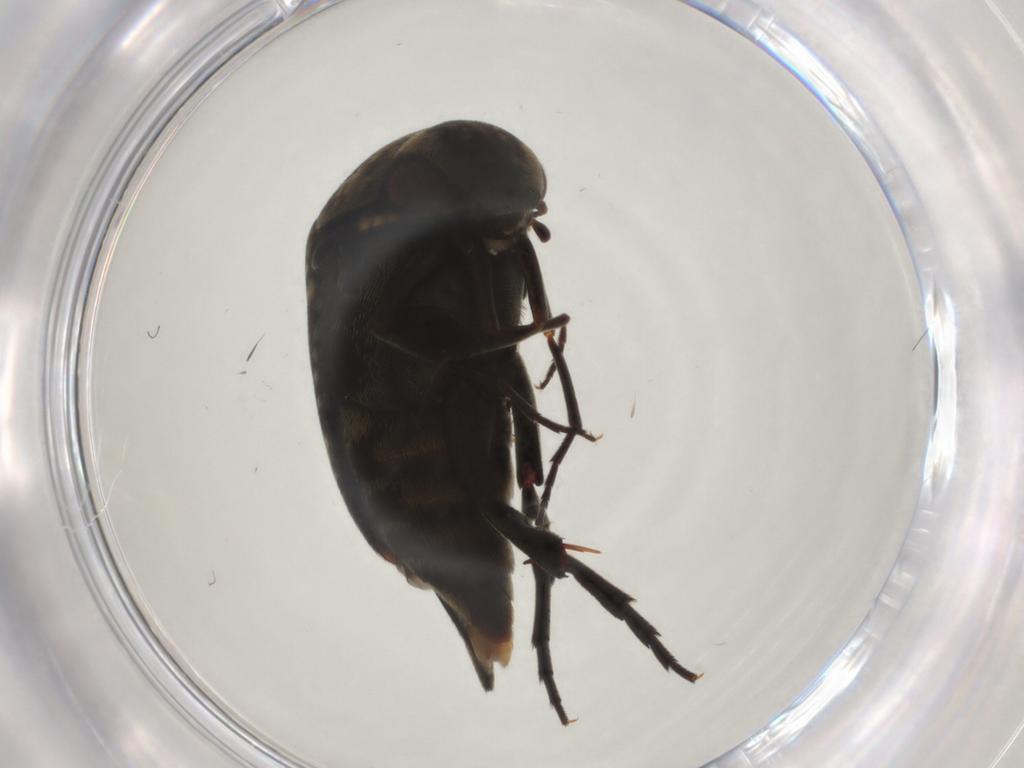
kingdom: Animalia
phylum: Arthropoda
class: Insecta
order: Coleoptera
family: Mordellidae
